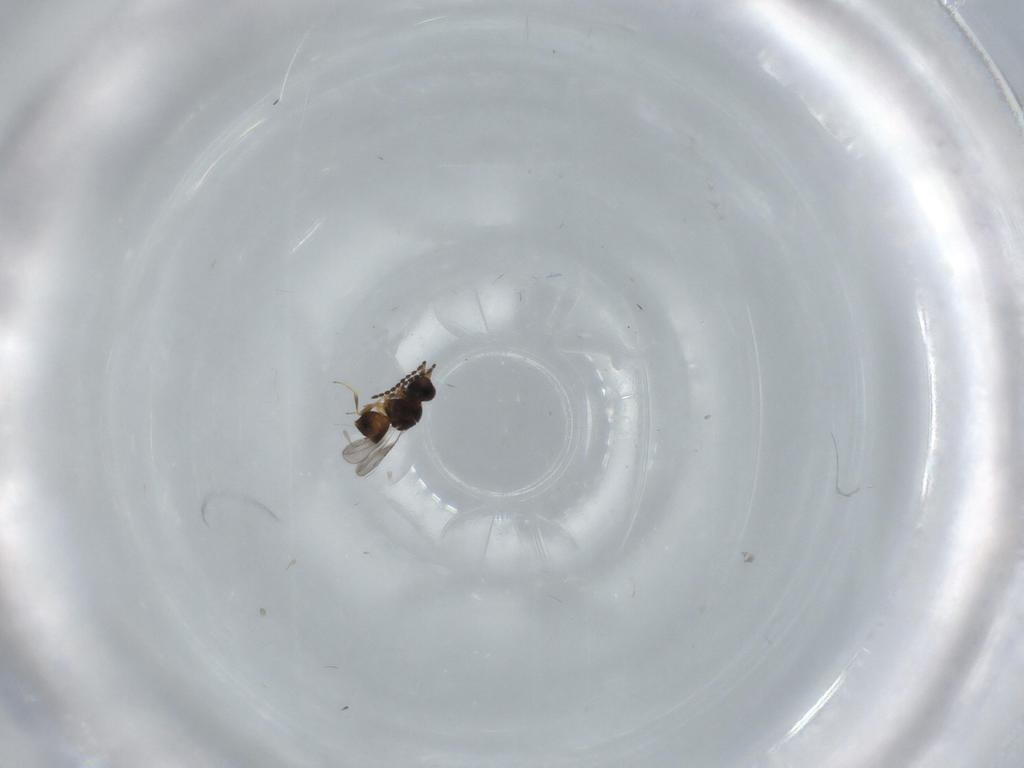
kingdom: Animalia
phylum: Arthropoda
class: Insecta
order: Hymenoptera
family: Ceraphronidae
